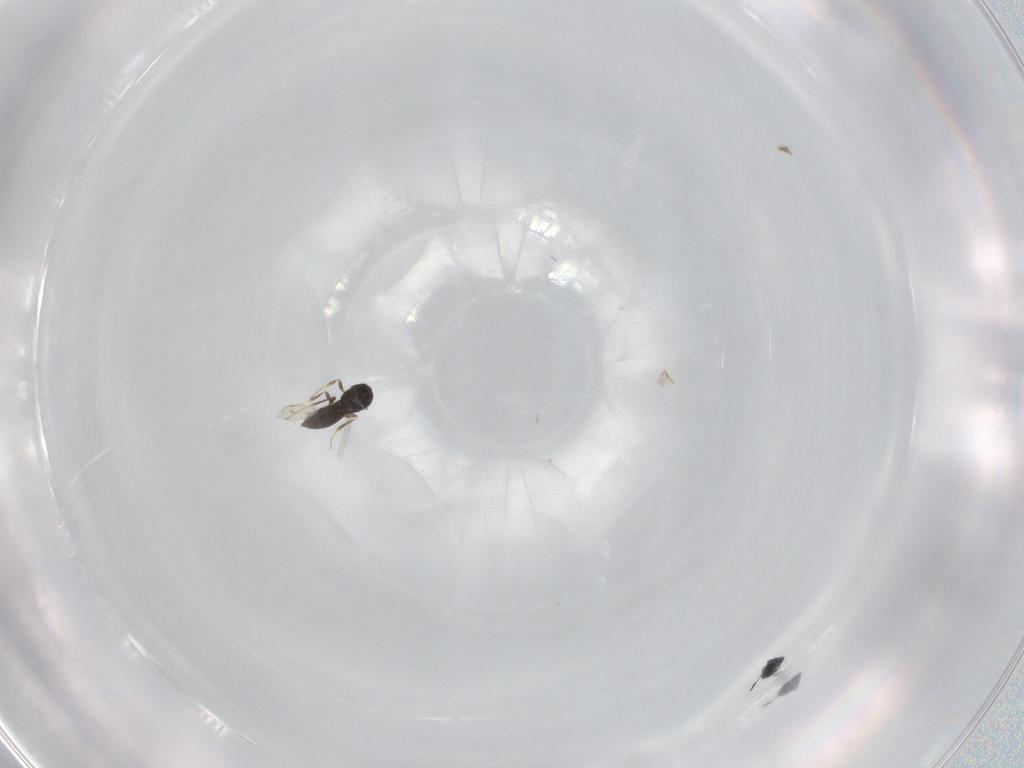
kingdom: Animalia
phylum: Arthropoda
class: Insecta
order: Hymenoptera
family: Scelionidae
